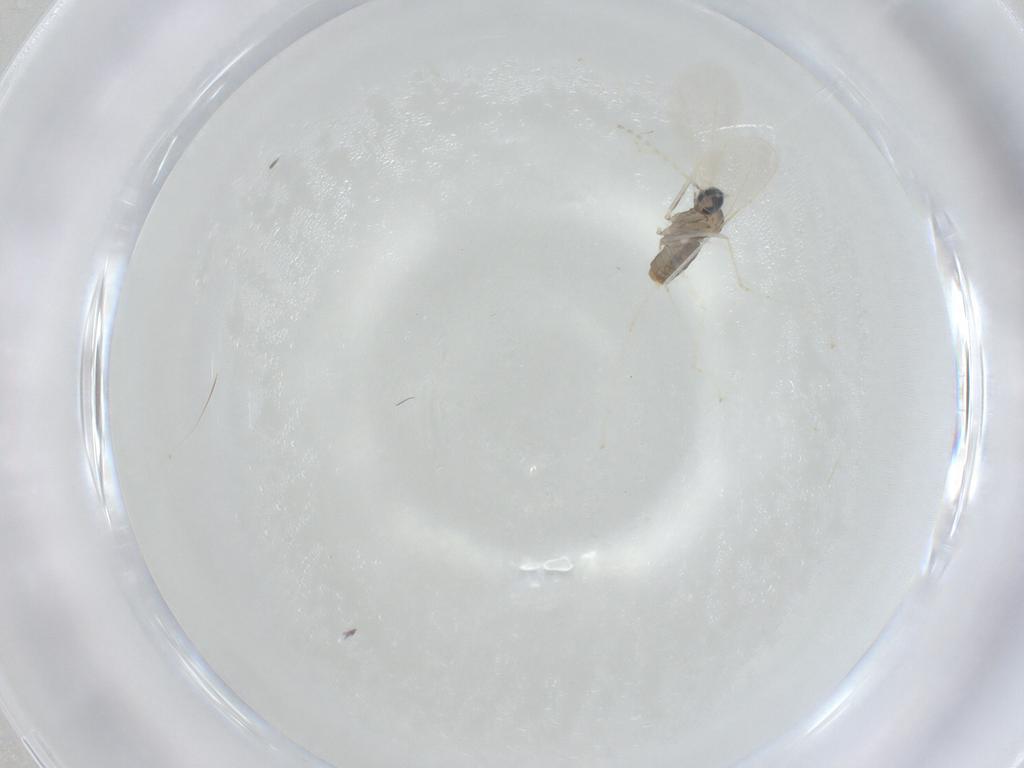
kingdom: Animalia
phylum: Arthropoda
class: Insecta
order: Diptera
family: Cecidomyiidae
